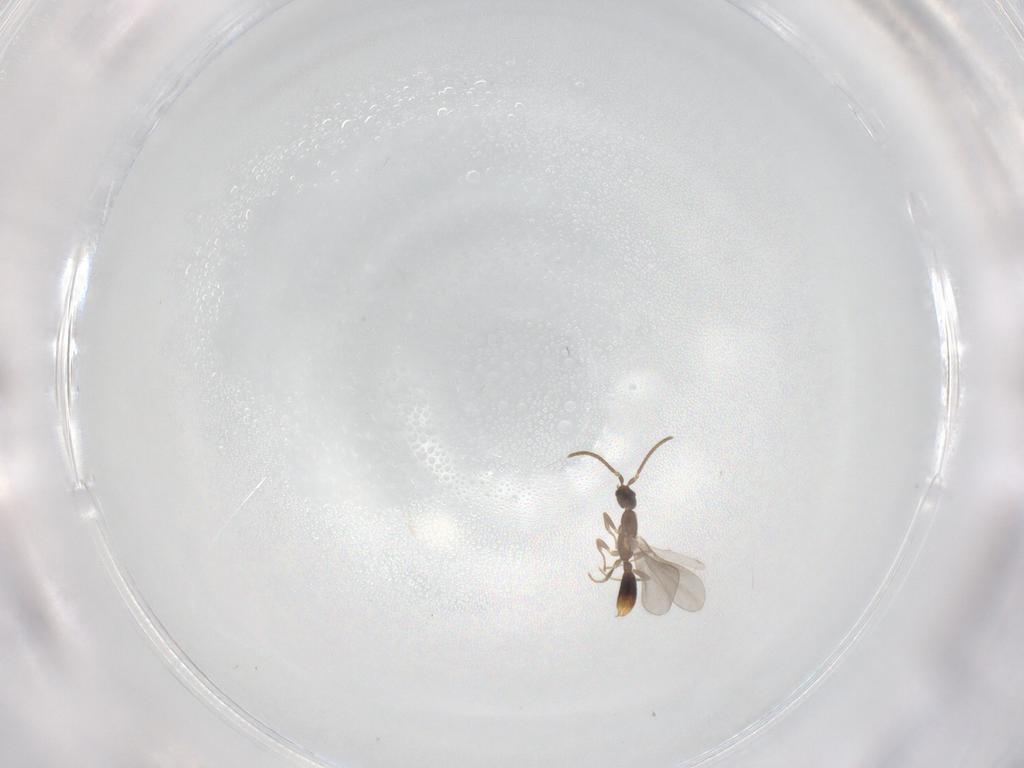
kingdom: Animalia
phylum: Arthropoda
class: Insecta
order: Hymenoptera
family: Formicidae
